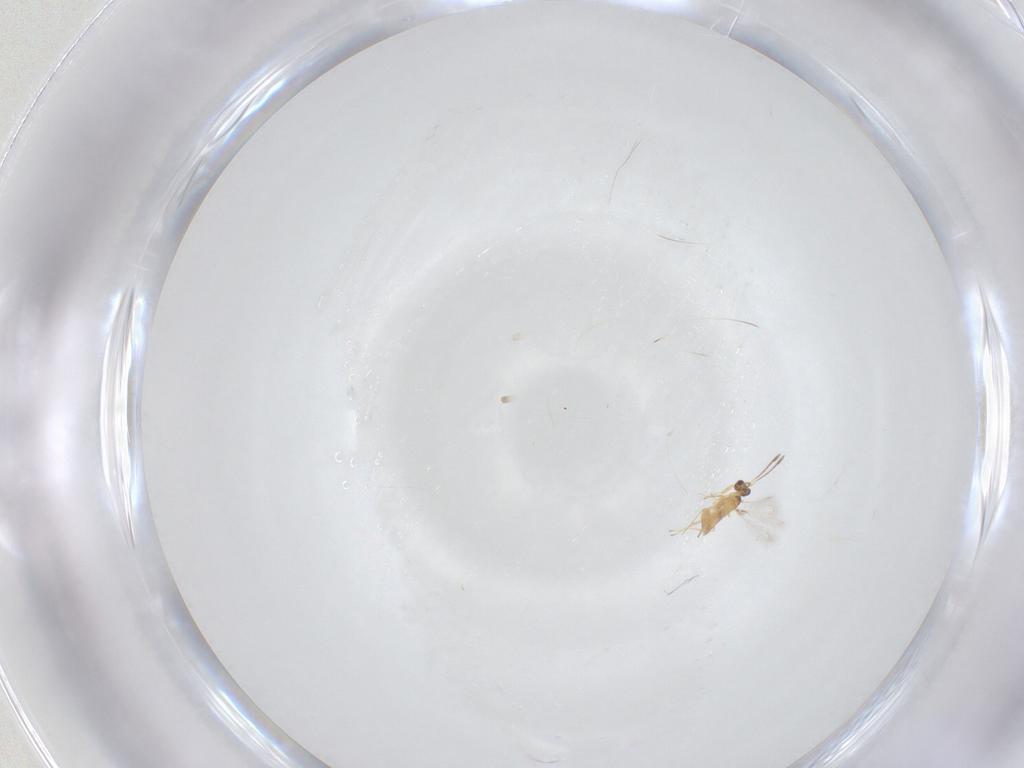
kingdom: Animalia
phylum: Arthropoda
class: Insecta
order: Hymenoptera
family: Mymaridae
